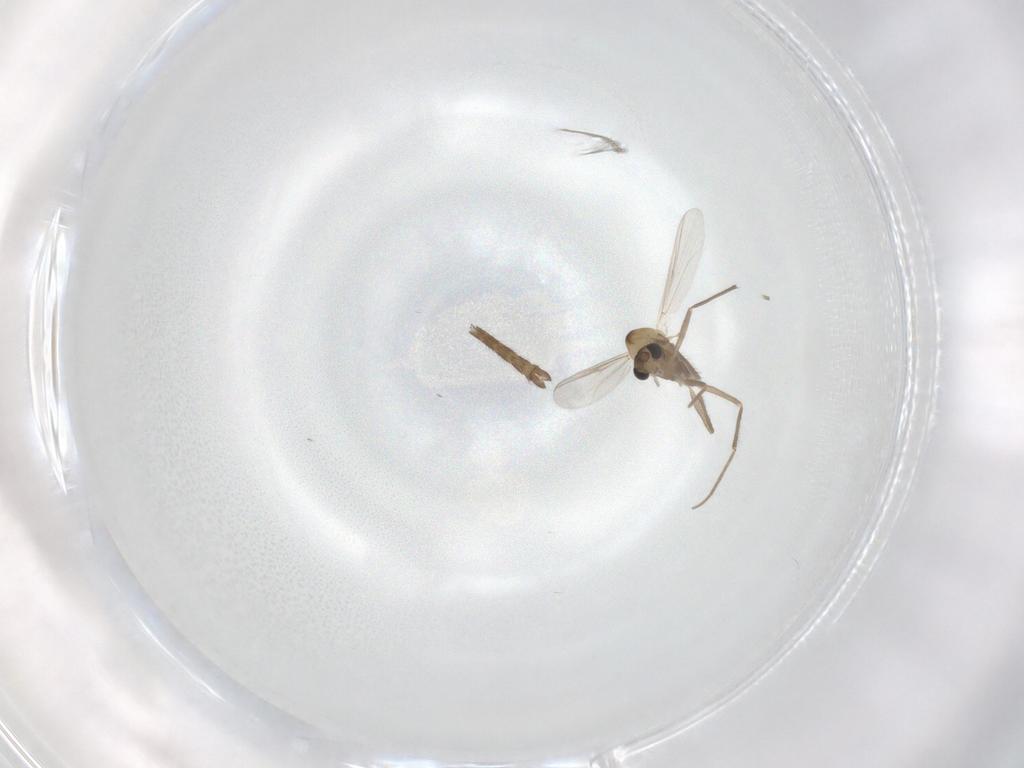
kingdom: Animalia
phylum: Arthropoda
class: Insecta
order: Diptera
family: Chironomidae
